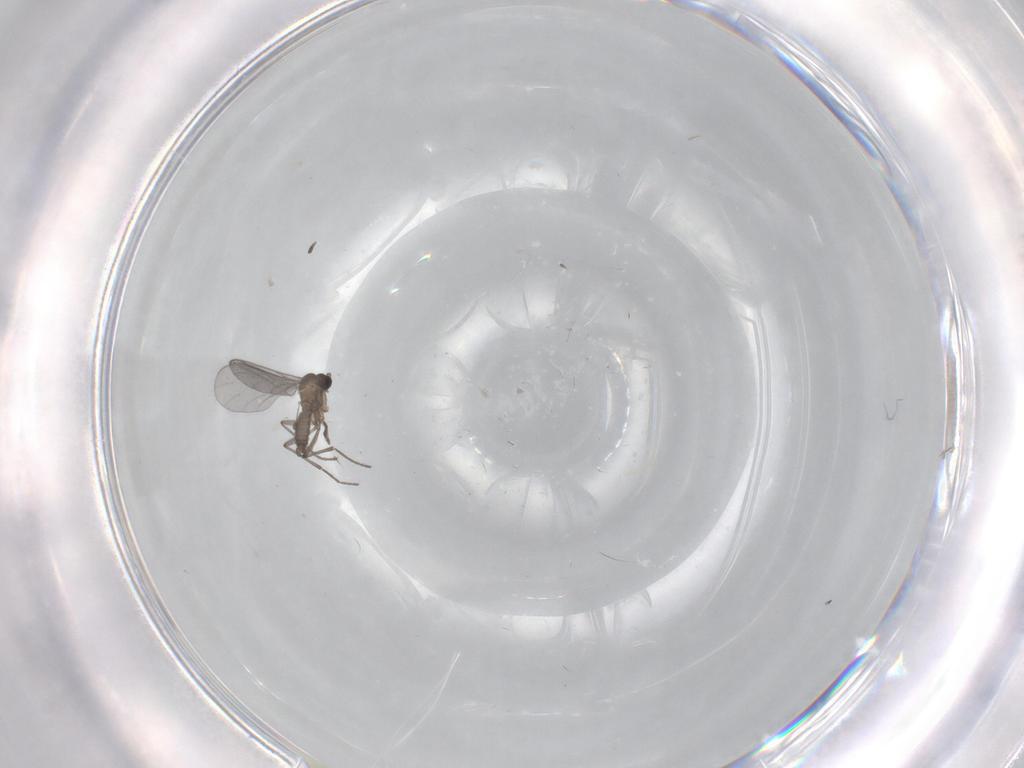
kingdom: Animalia
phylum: Arthropoda
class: Insecta
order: Diptera
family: Sciaridae
